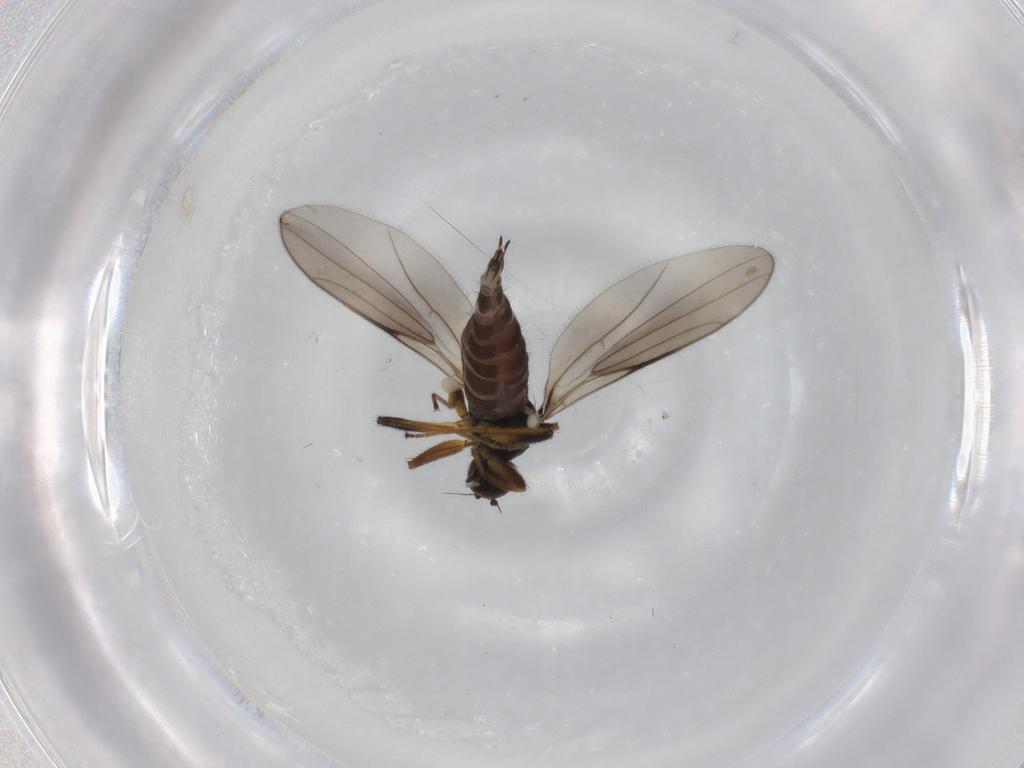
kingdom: Animalia
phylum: Arthropoda
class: Insecta
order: Diptera
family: Hybotidae
